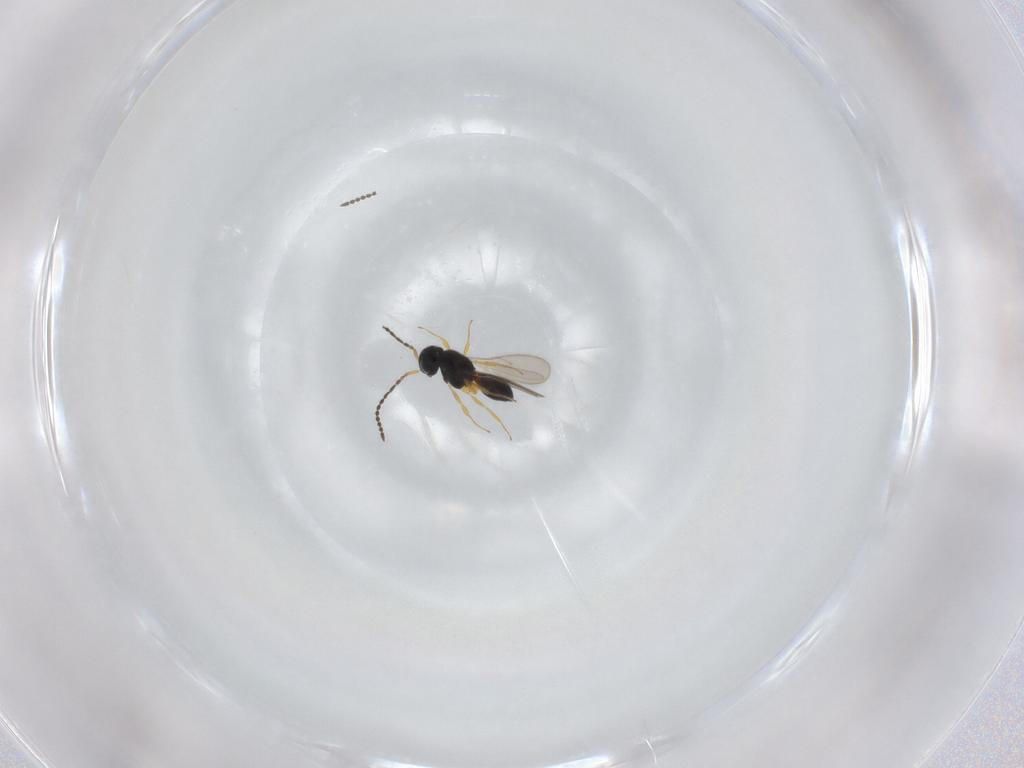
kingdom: Animalia
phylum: Arthropoda
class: Insecta
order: Hymenoptera
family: Scelionidae
